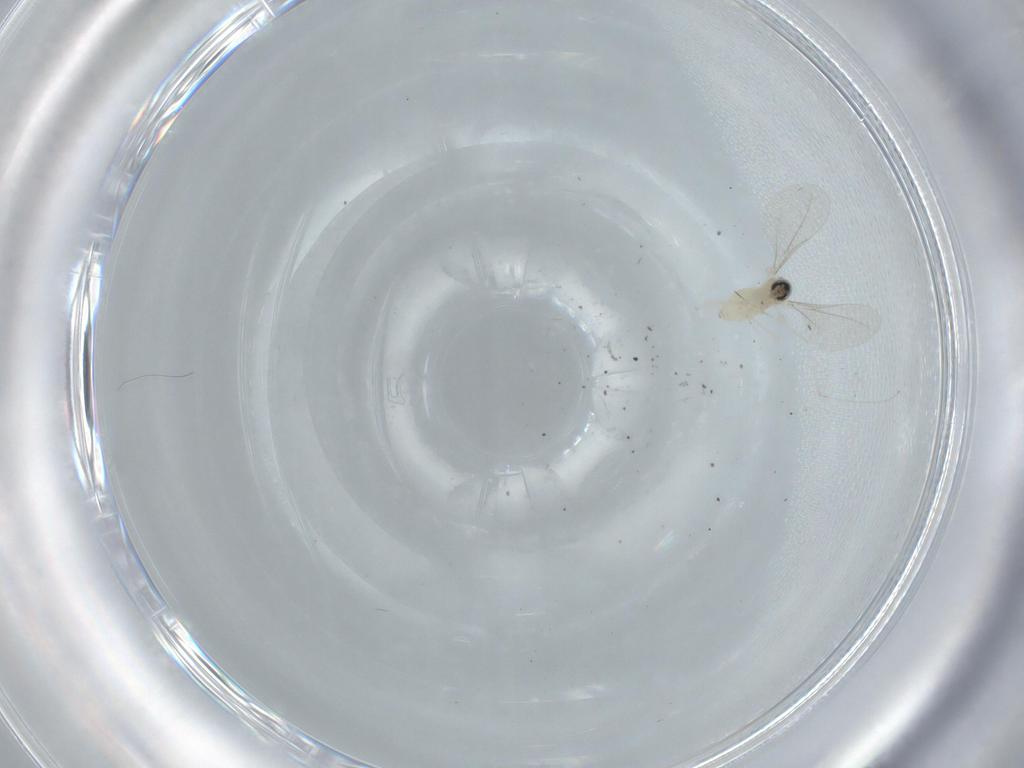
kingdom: Animalia
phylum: Arthropoda
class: Insecta
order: Diptera
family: Cecidomyiidae
